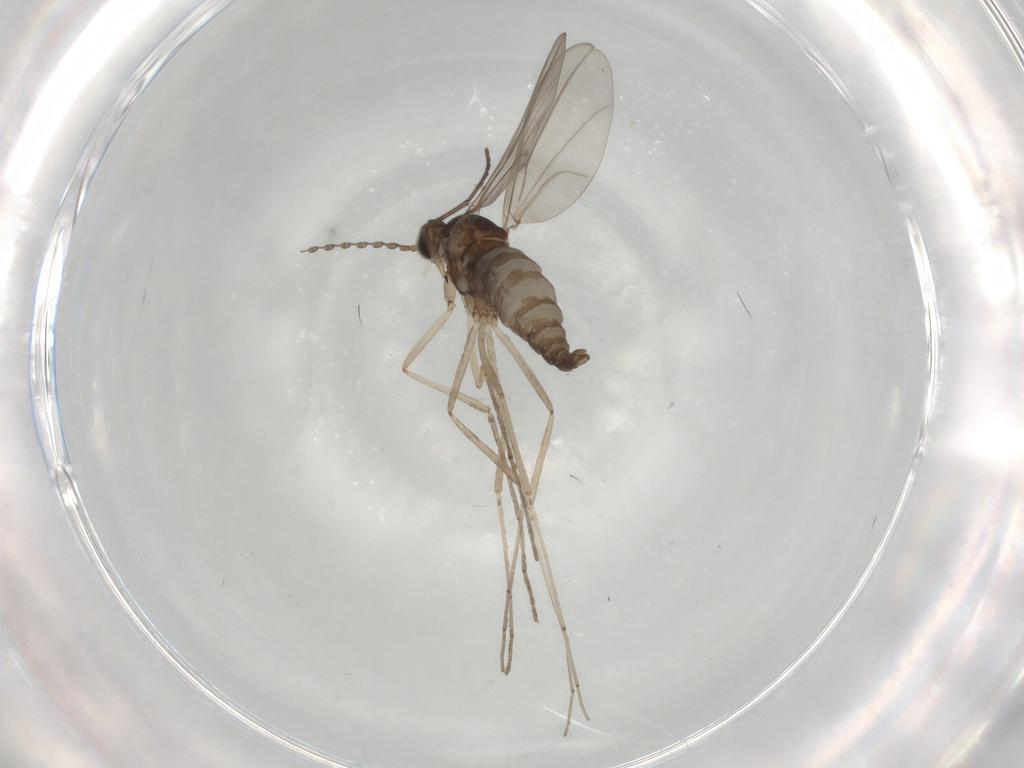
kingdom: Animalia
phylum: Arthropoda
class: Insecta
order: Diptera
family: Cecidomyiidae
